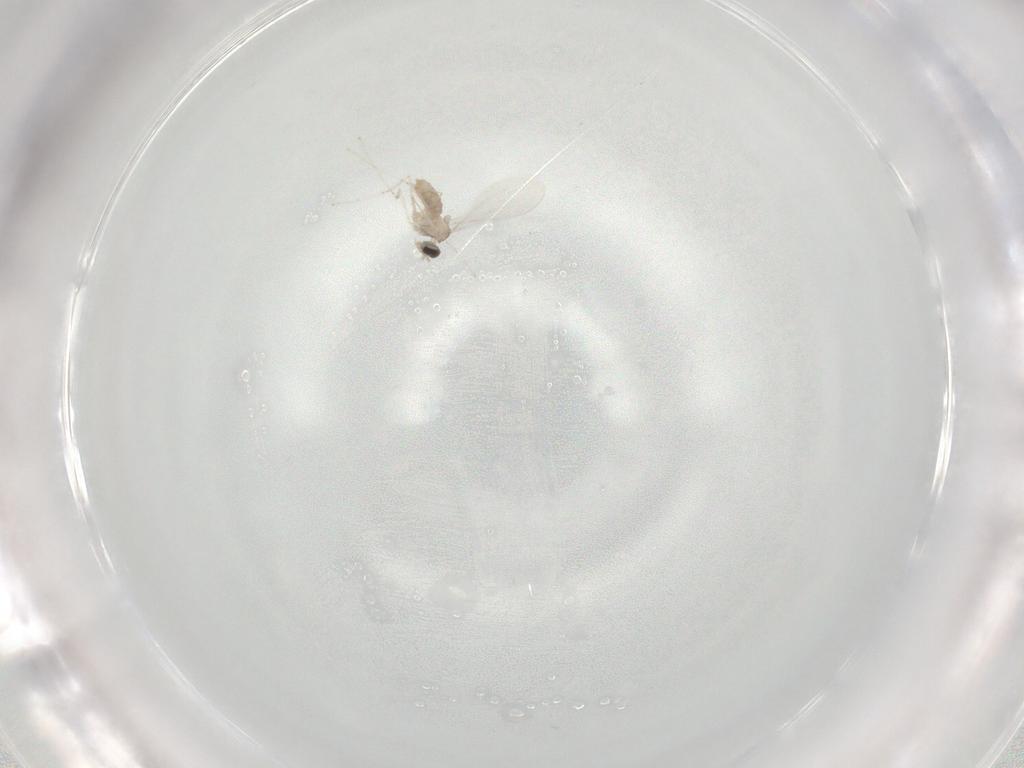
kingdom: Animalia
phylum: Arthropoda
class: Insecta
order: Diptera
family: Cecidomyiidae
